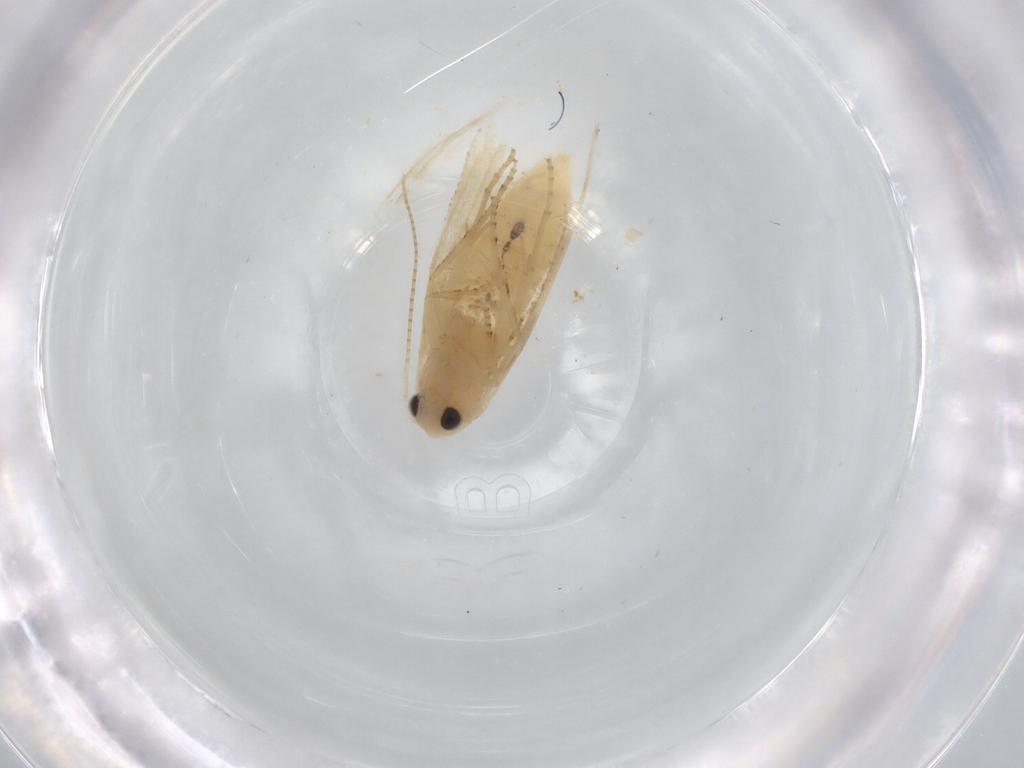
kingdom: Animalia
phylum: Arthropoda
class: Insecta
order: Lepidoptera
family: Bucculatricidae
